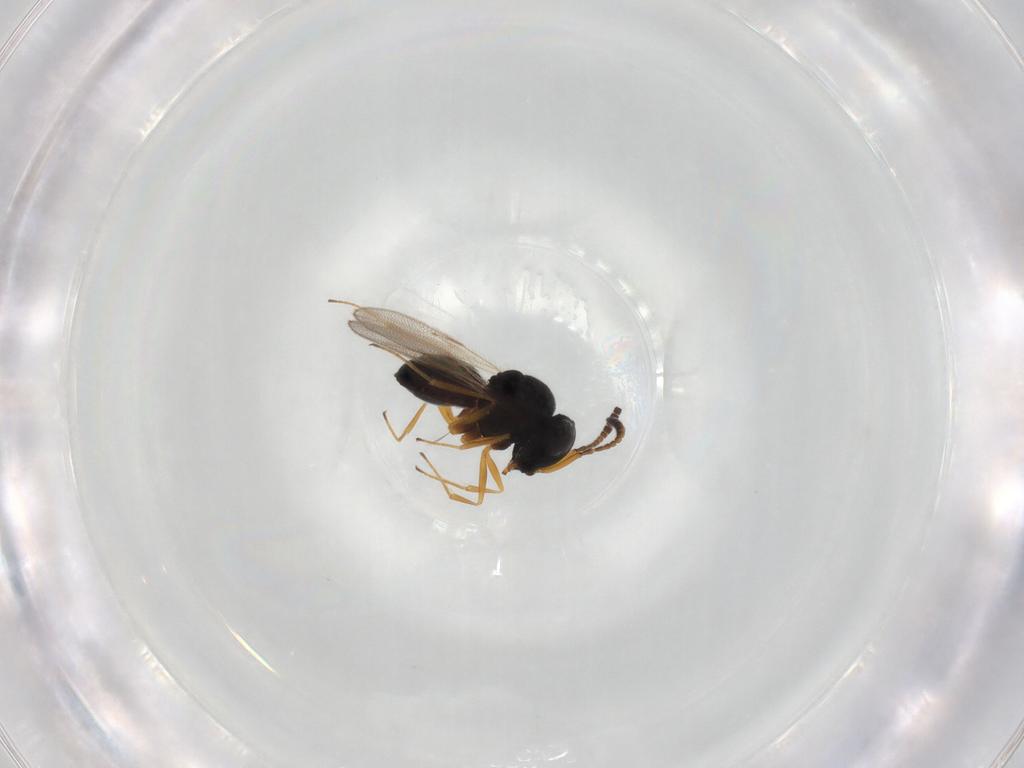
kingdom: Animalia
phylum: Arthropoda
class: Insecta
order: Hymenoptera
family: Scelionidae
